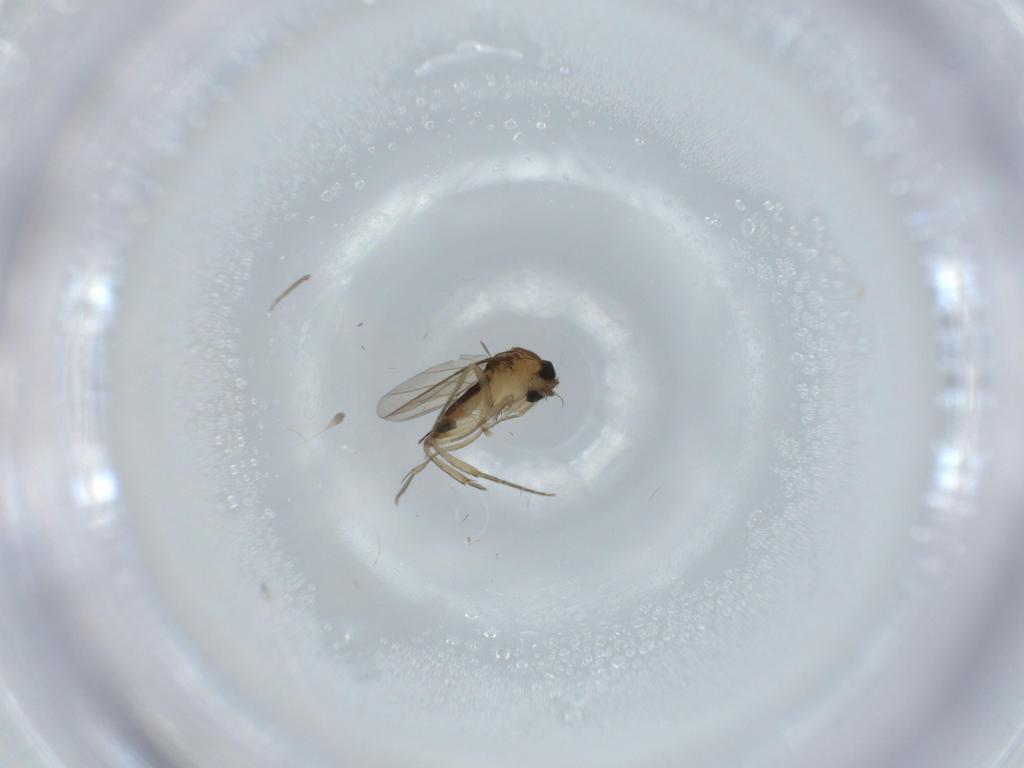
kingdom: Animalia
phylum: Arthropoda
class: Insecta
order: Diptera
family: Phoridae
